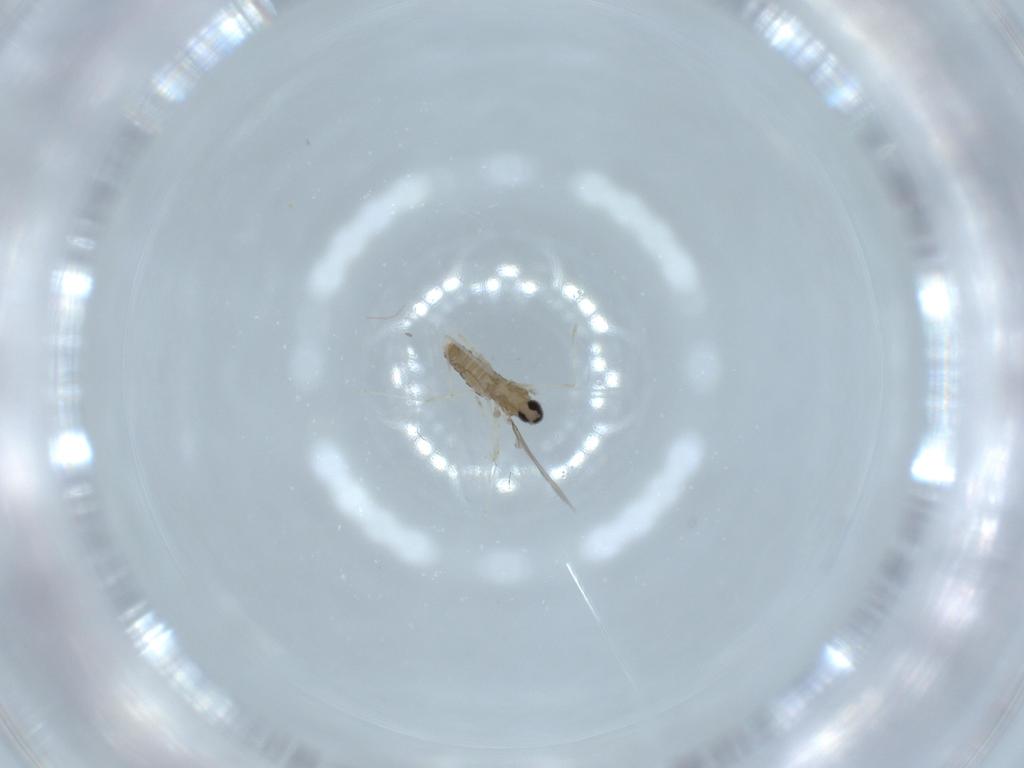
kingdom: Animalia
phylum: Arthropoda
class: Insecta
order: Diptera
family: Cecidomyiidae
